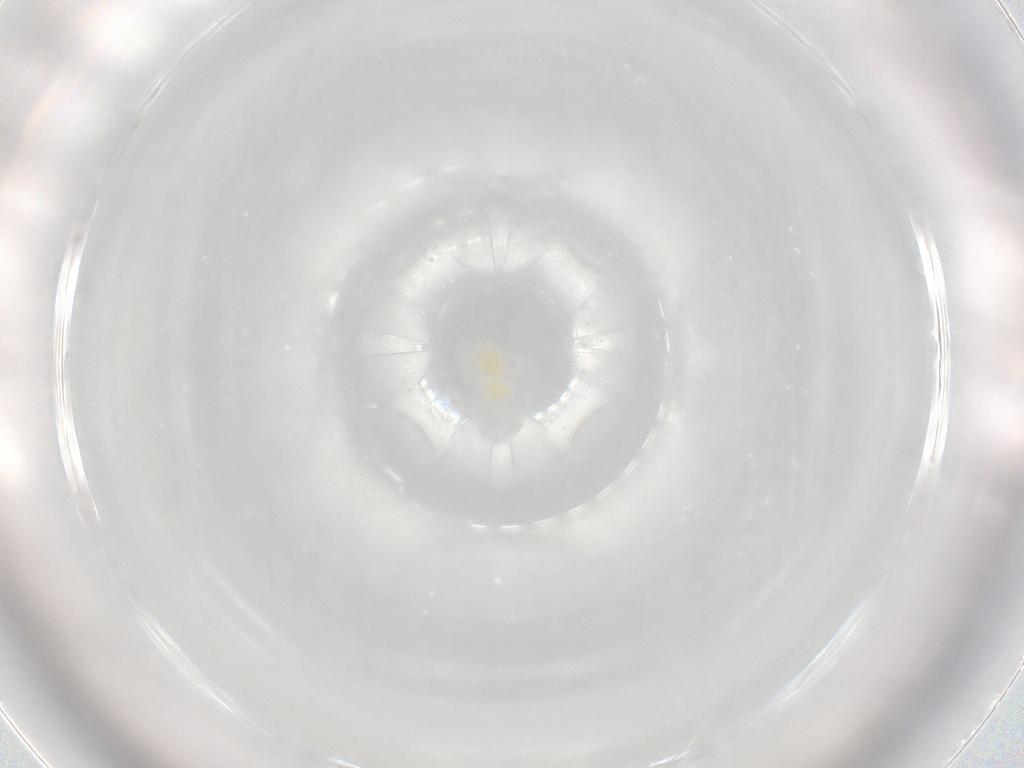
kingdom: Animalia
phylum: Arthropoda
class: Arachnida
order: Trombidiformes
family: Rhagidiidae
